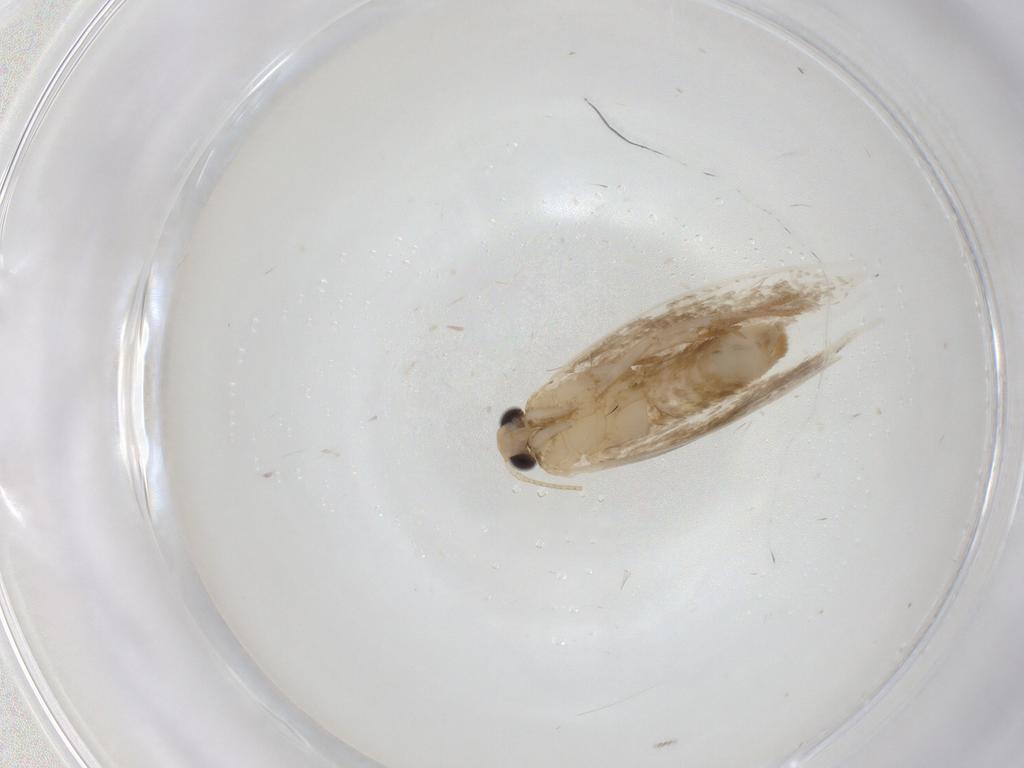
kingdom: Animalia
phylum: Arthropoda
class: Insecta
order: Lepidoptera
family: Tineidae
